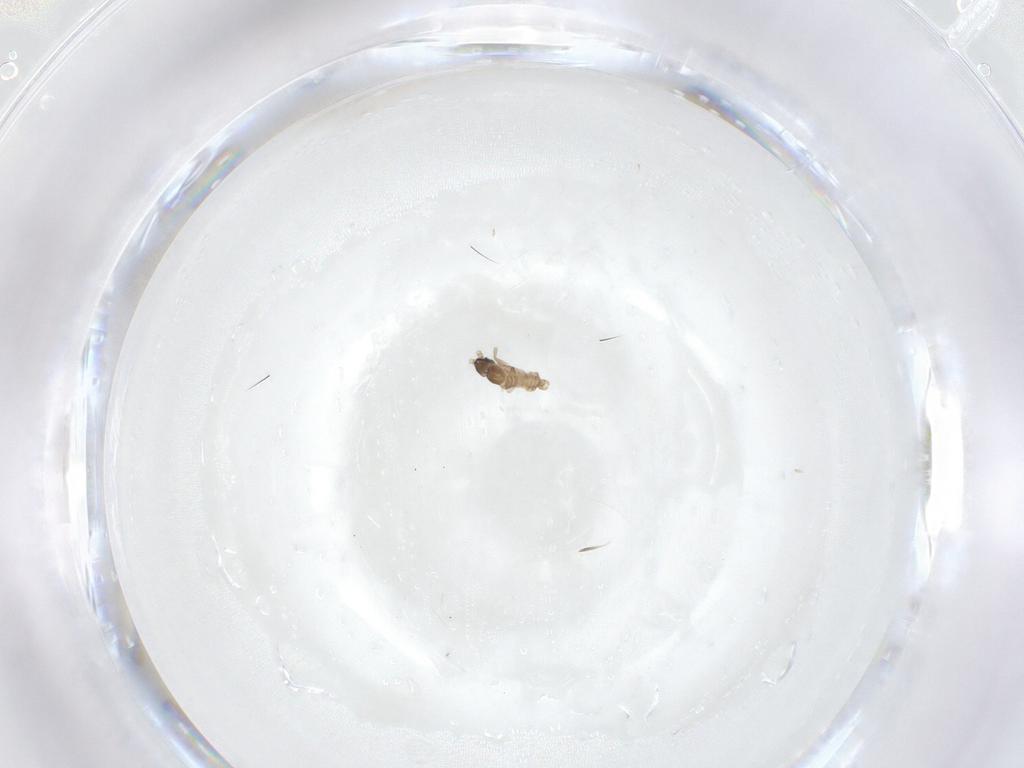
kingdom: Animalia
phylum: Arthropoda
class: Insecta
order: Diptera
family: Cecidomyiidae
